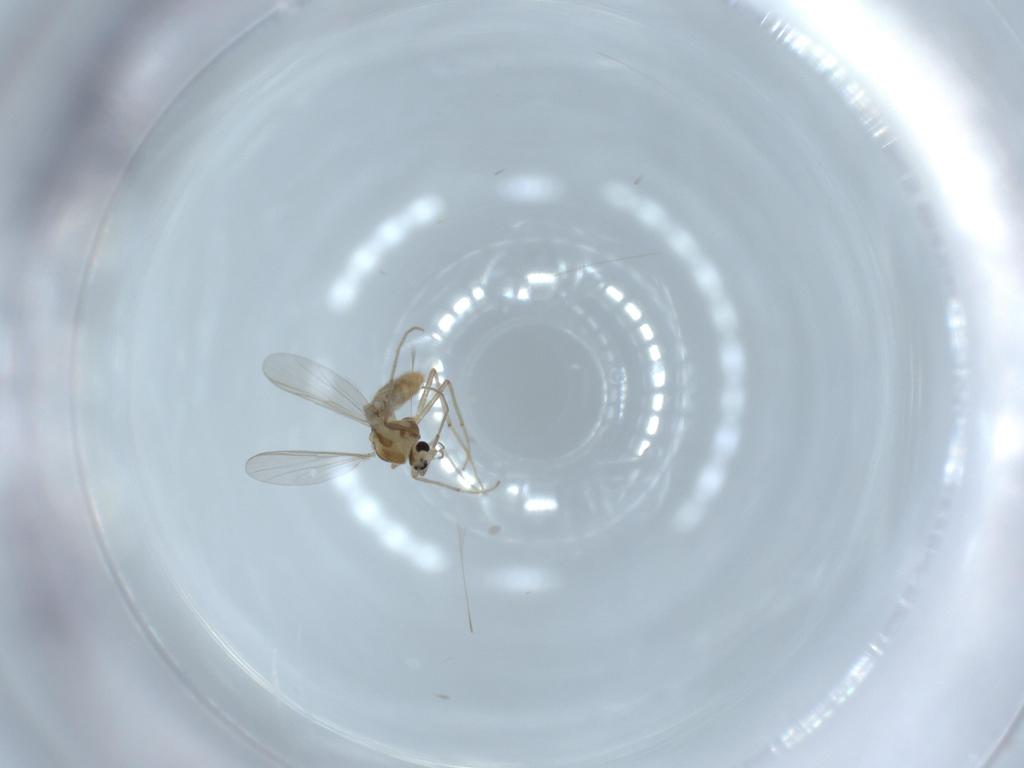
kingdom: Animalia
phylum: Arthropoda
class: Insecta
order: Diptera
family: Chironomidae
